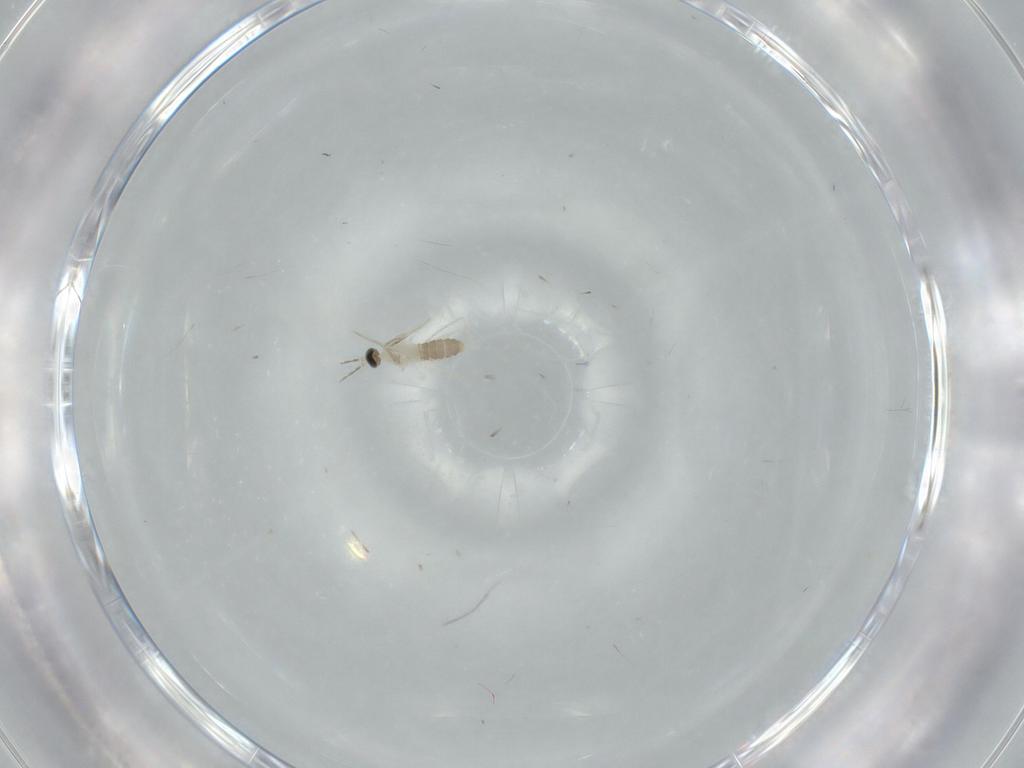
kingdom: Animalia
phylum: Arthropoda
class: Insecta
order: Diptera
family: Cecidomyiidae
